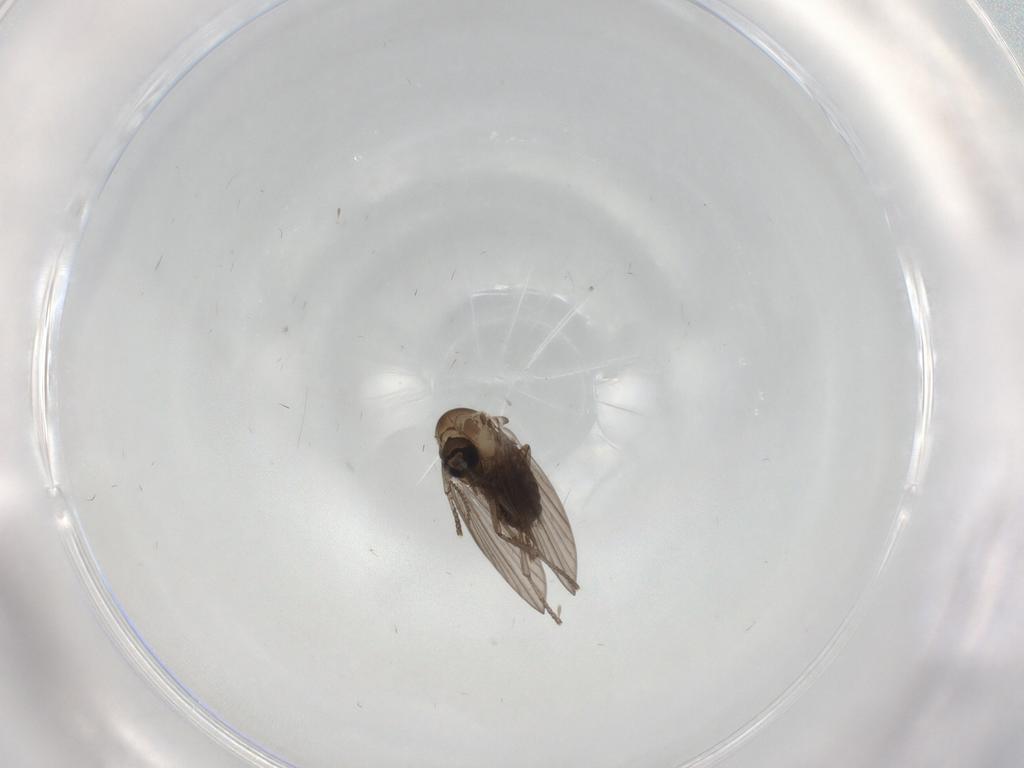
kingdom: Animalia
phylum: Arthropoda
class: Insecta
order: Diptera
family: Psychodidae
